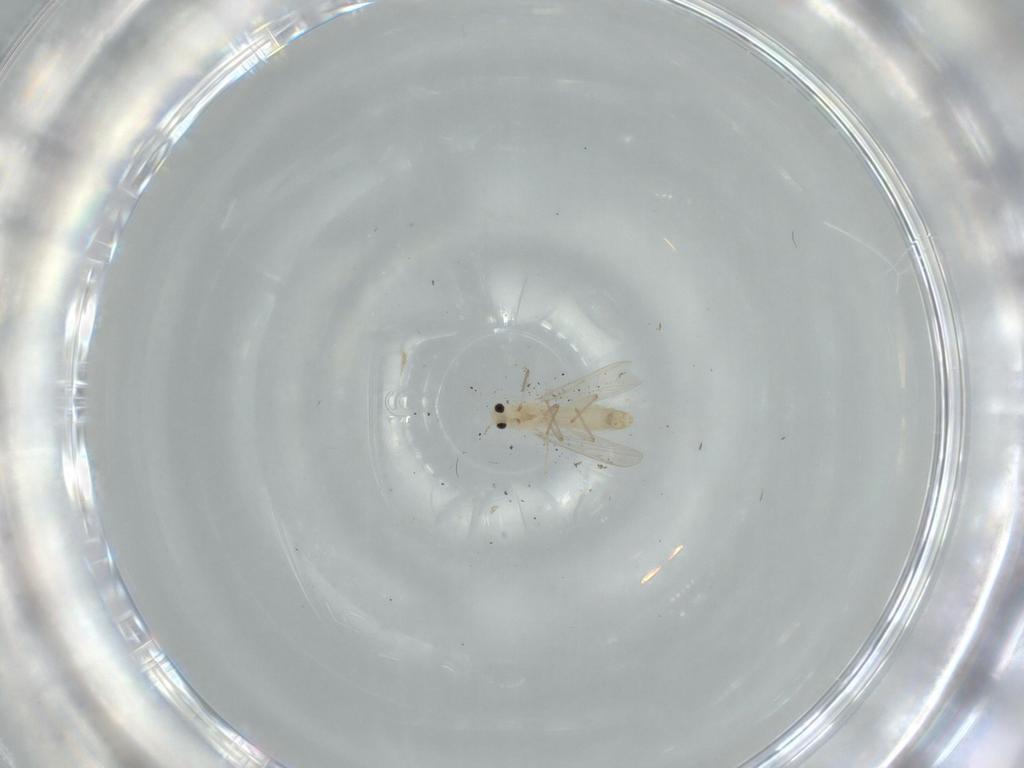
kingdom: Animalia
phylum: Arthropoda
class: Insecta
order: Diptera
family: Chironomidae
